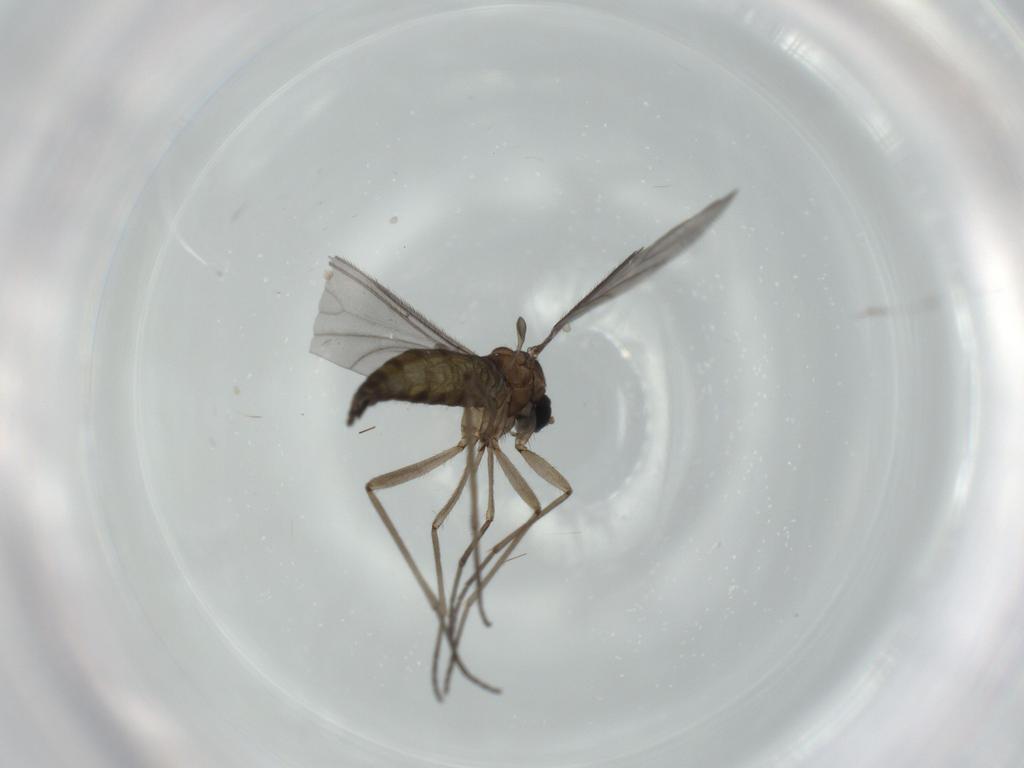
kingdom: Animalia
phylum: Arthropoda
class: Insecta
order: Diptera
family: Sciaridae
